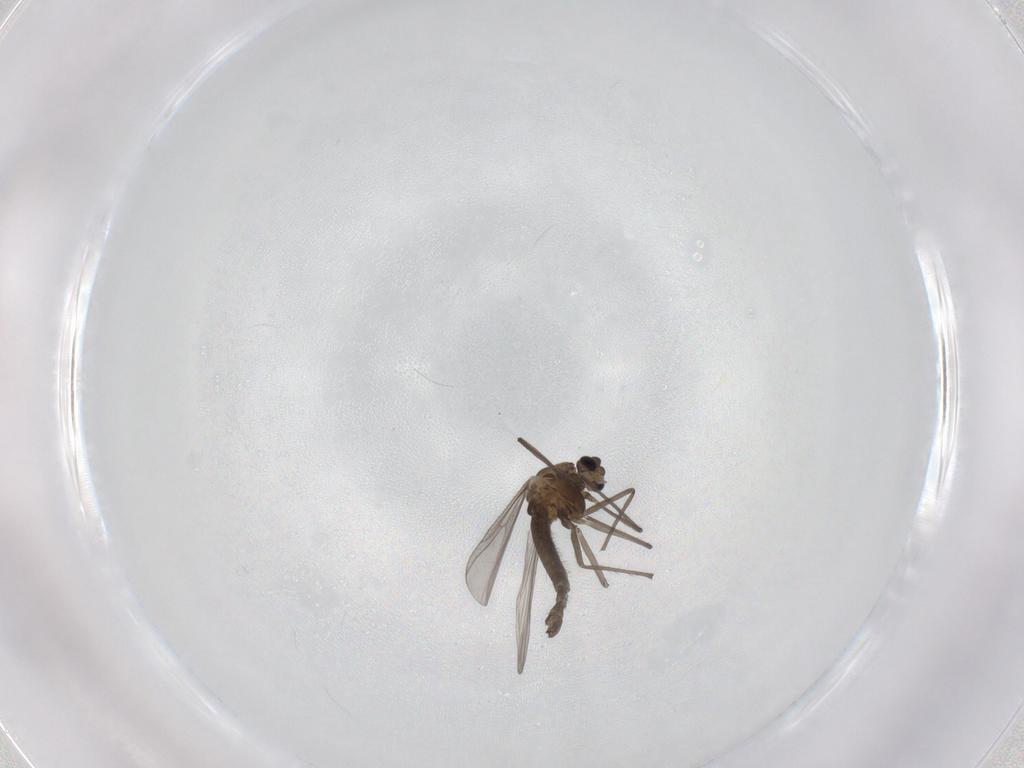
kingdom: Animalia
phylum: Arthropoda
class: Insecta
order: Diptera
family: Chironomidae
